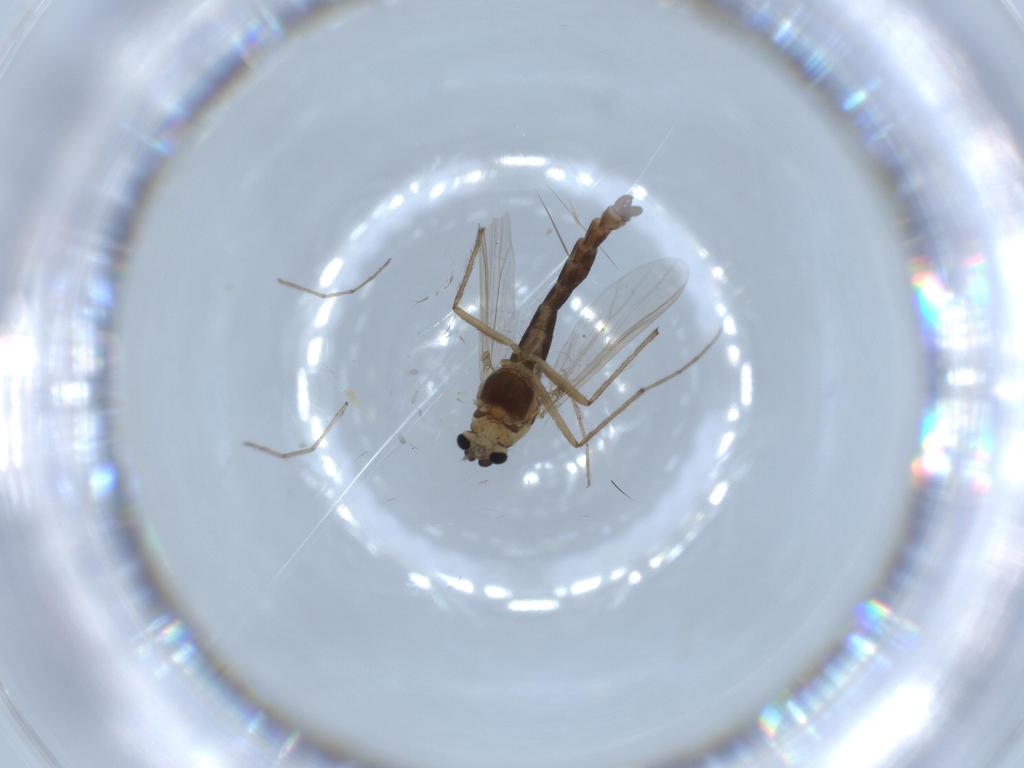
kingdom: Animalia
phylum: Arthropoda
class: Insecta
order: Diptera
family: Chironomidae
